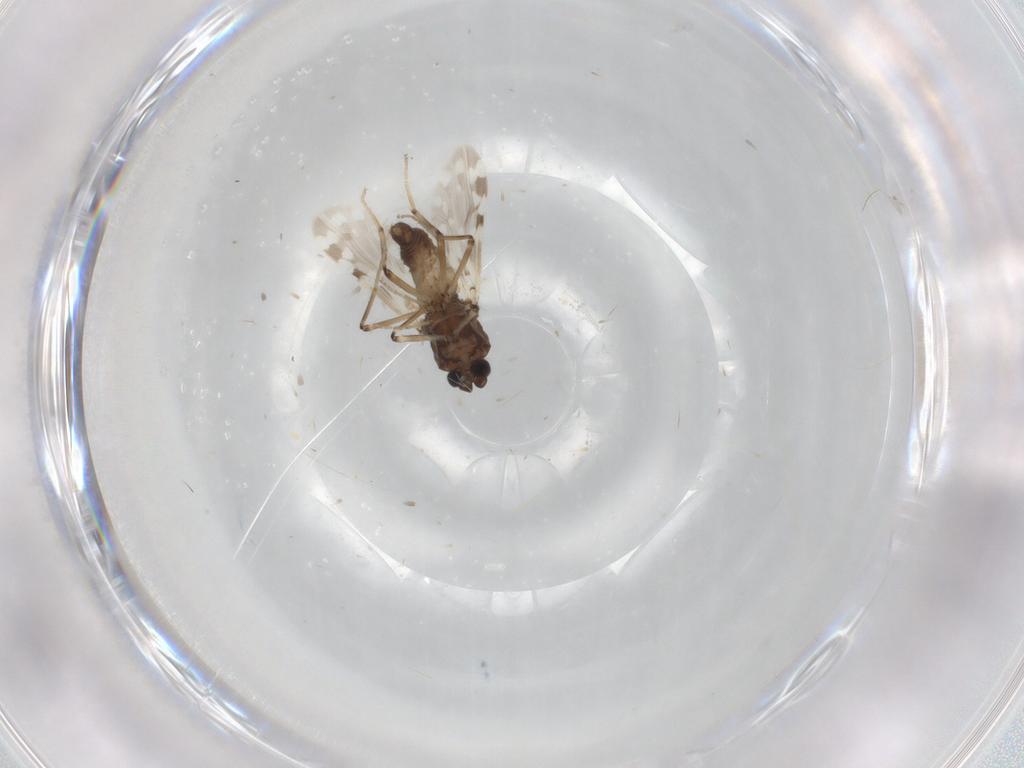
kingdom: Animalia
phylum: Arthropoda
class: Insecta
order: Diptera
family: Ceratopogonidae
